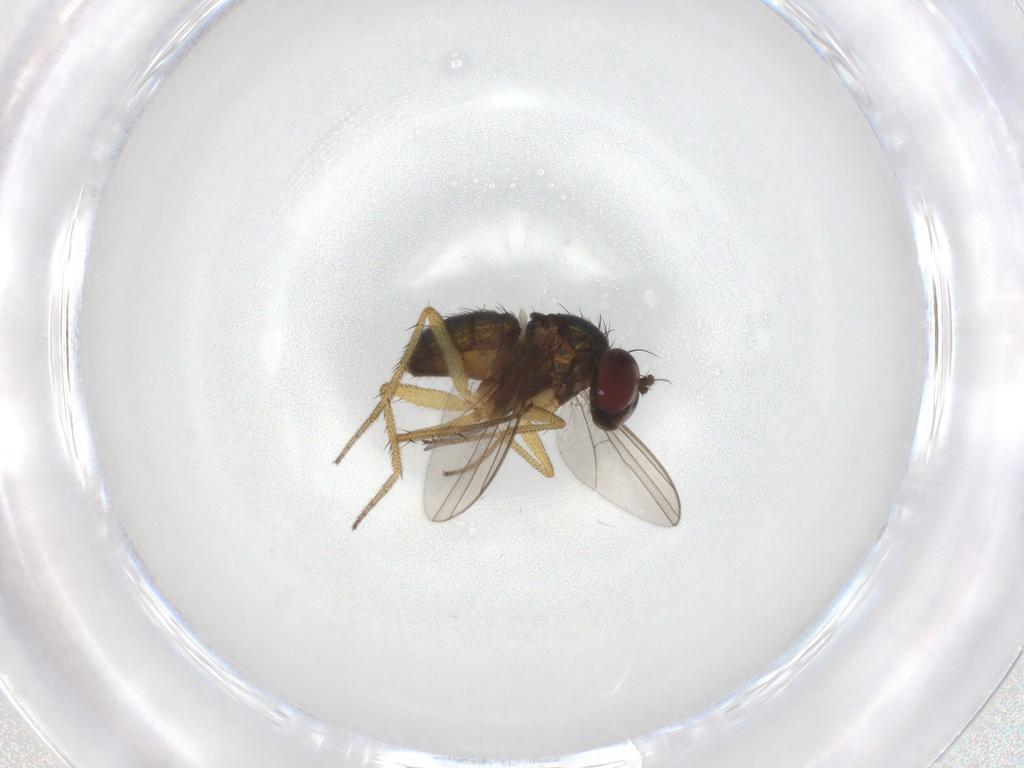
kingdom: Animalia
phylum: Arthropoda
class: Insecta
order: Diptera
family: Dolichopodidae
